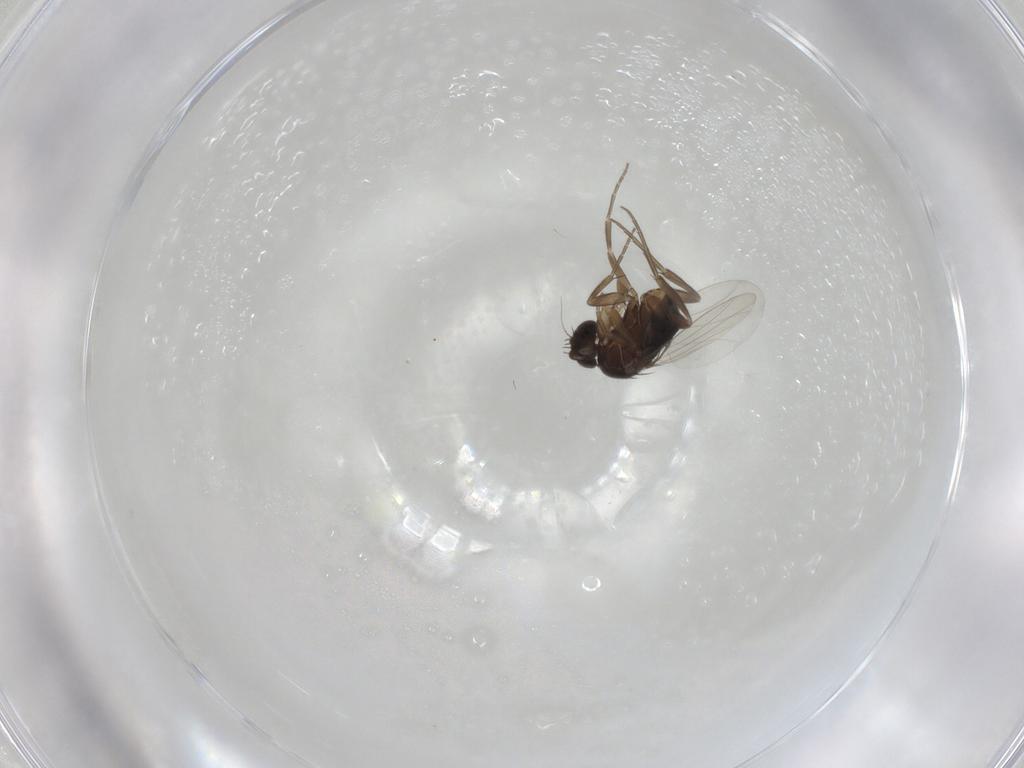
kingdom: Animalia
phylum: Arthropoda
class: Insecta
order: Diptera
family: Phoridae
